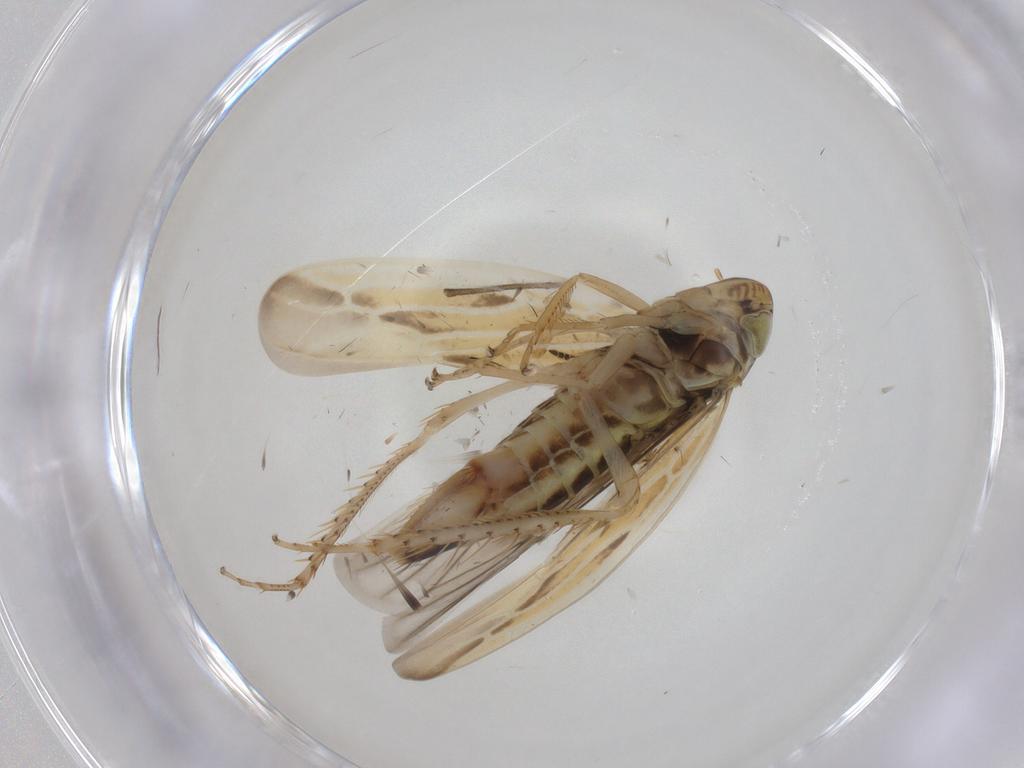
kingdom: Animalia
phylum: Arthropoda
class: Insecta
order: Hemiptera
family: Cicadellidae
